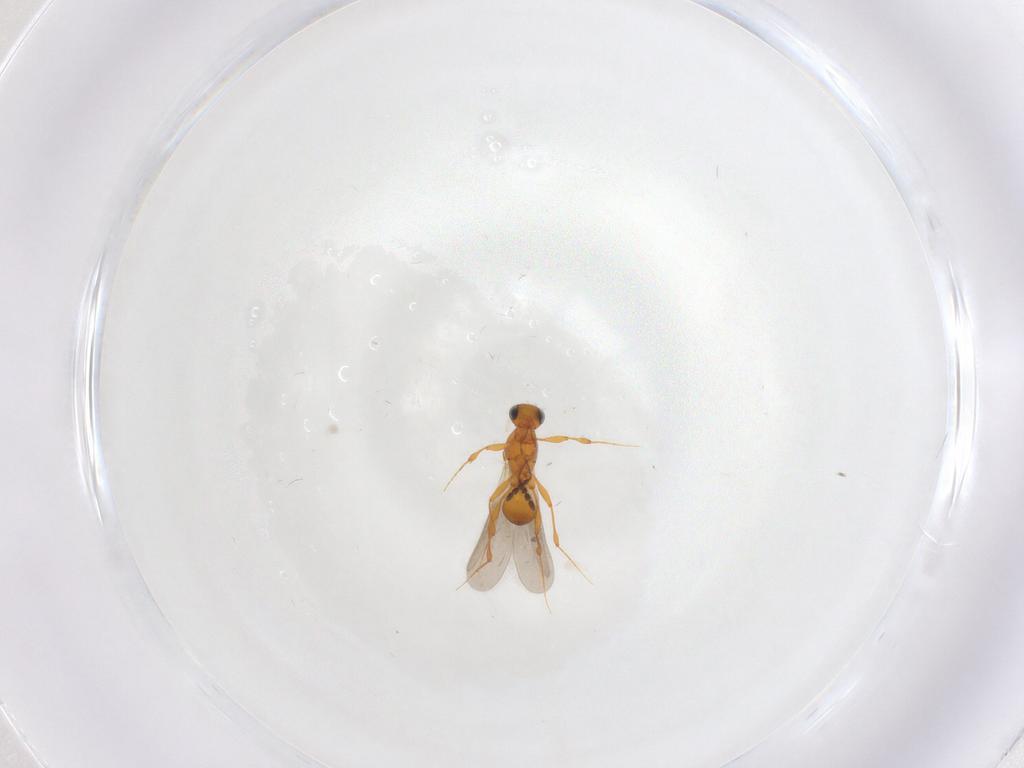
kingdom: Animalia
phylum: Arthropoda
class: Insecta
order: Hymenoptera
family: Platygastridae
